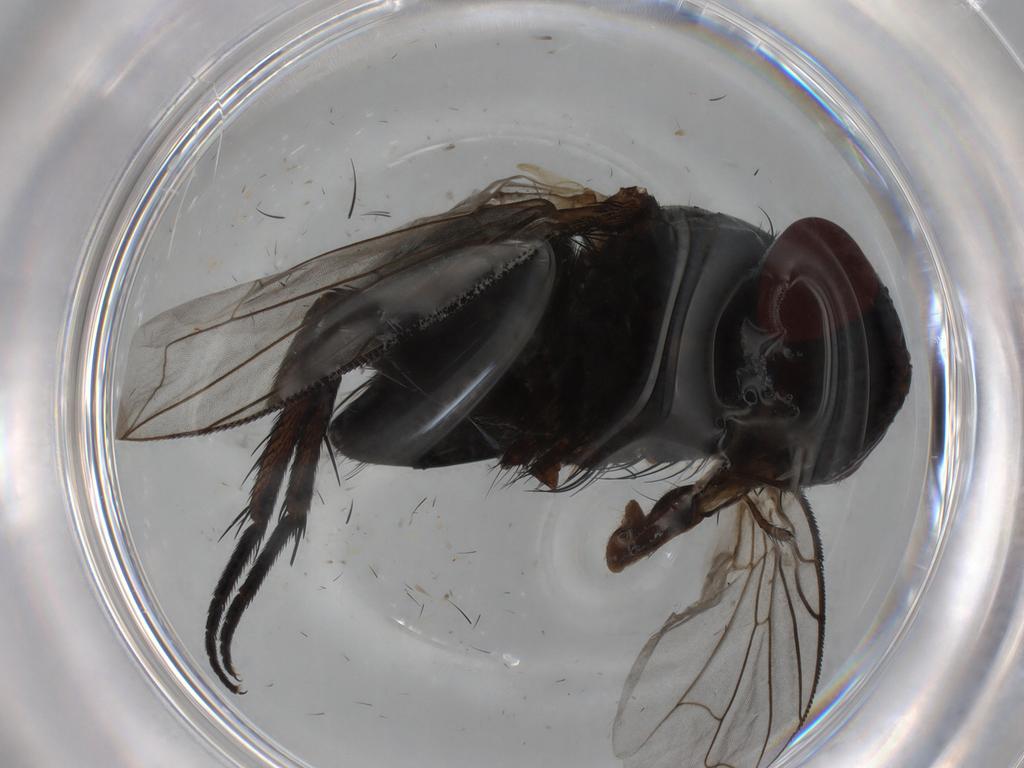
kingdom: Animalia
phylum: Arthropoda
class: Insecta
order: Diptera
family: Tachinidae
